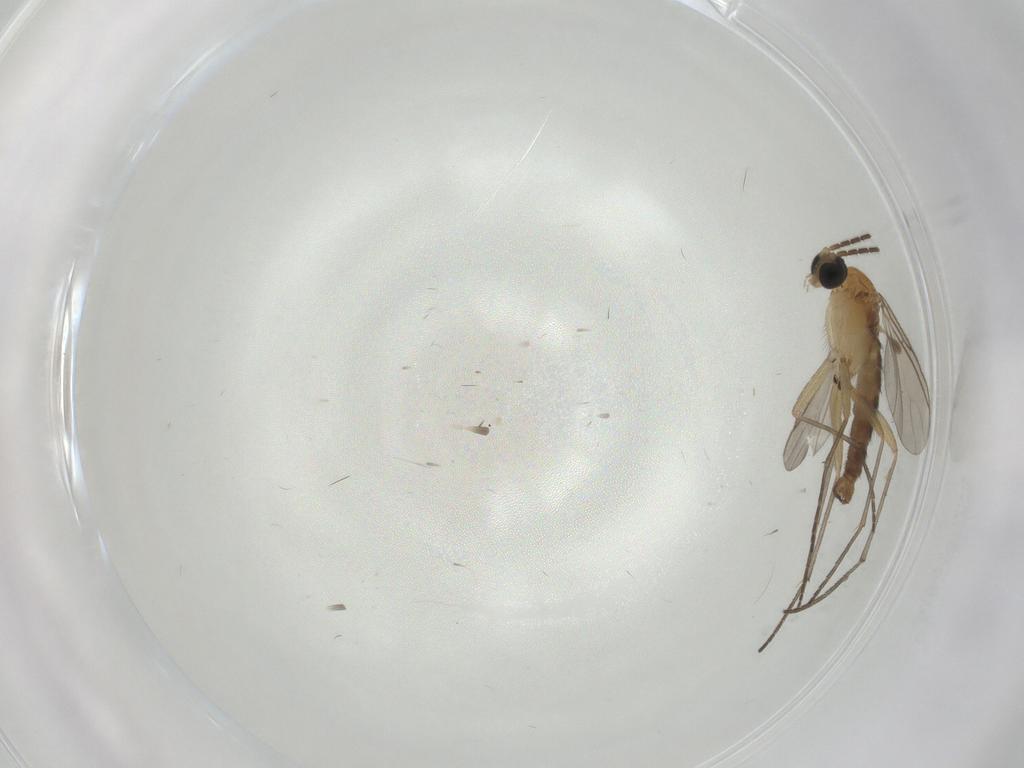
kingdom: Animalia
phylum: Arthropoda
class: Insecta
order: Diptera
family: Sciaridae
